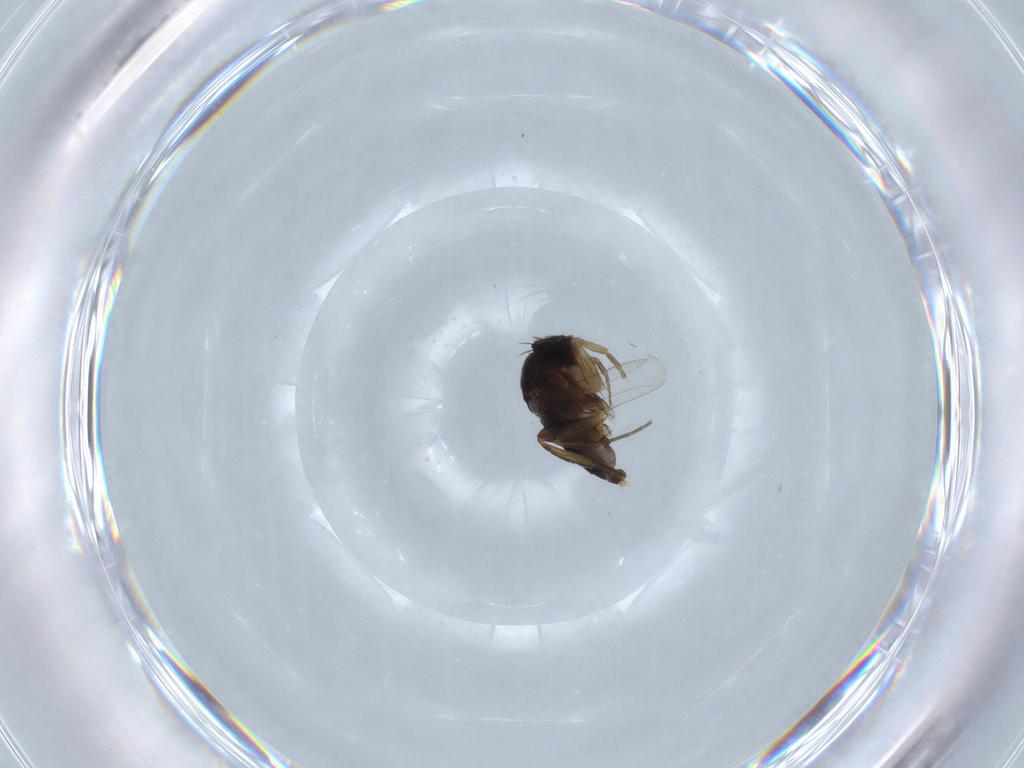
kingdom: Animalia
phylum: Arthropoda
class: Insecta
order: Diptera
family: Phoridae
